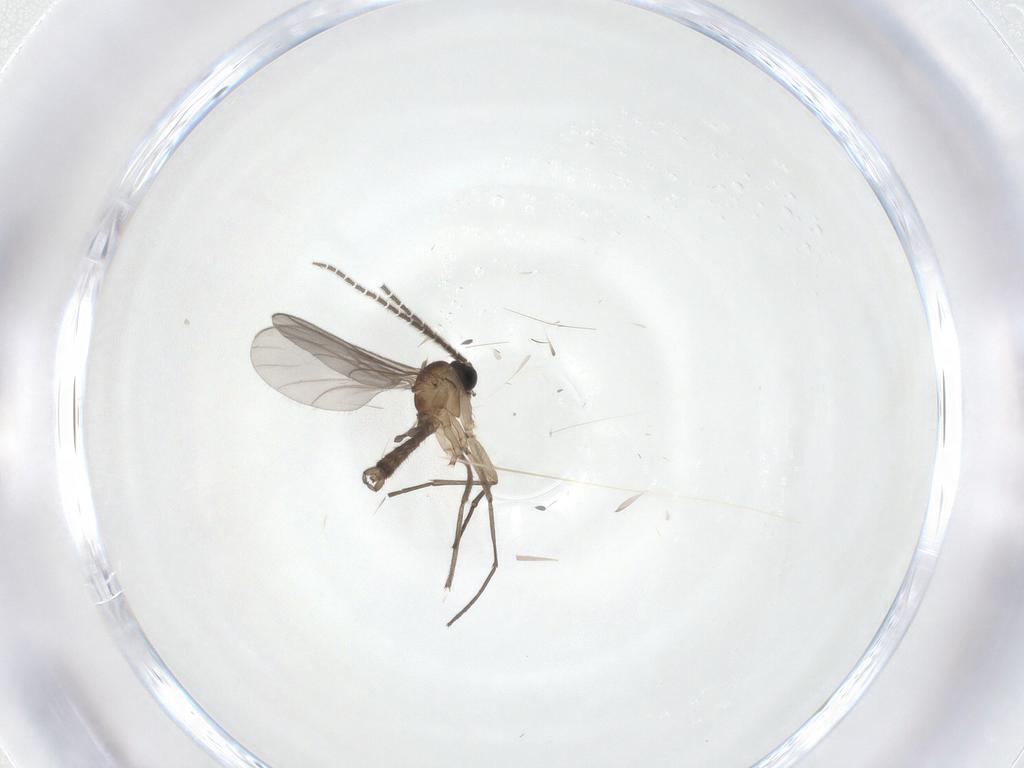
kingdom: Animalia
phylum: Arthropoda
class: Insecta
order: Diptera
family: Sciaridae
